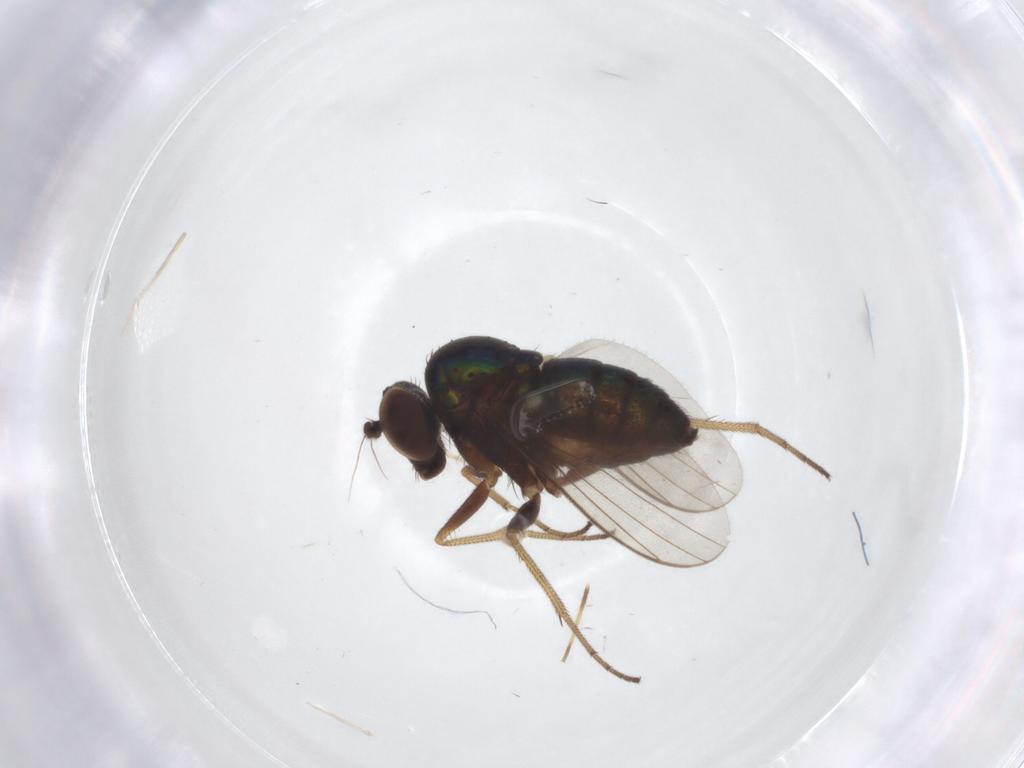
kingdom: Animalia
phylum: Arthropoda
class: Insecta
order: Diptera
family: Dolichopodidae
